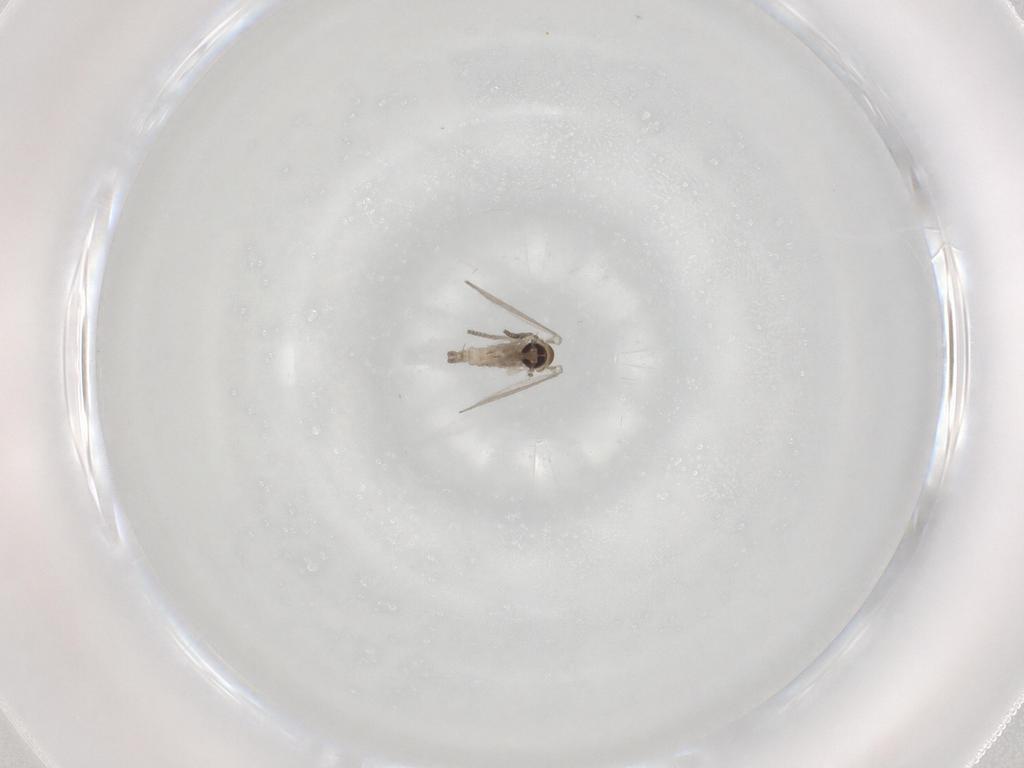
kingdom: Animalia
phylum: Arthropoda
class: Insecta
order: Diptera
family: Psychodidae
